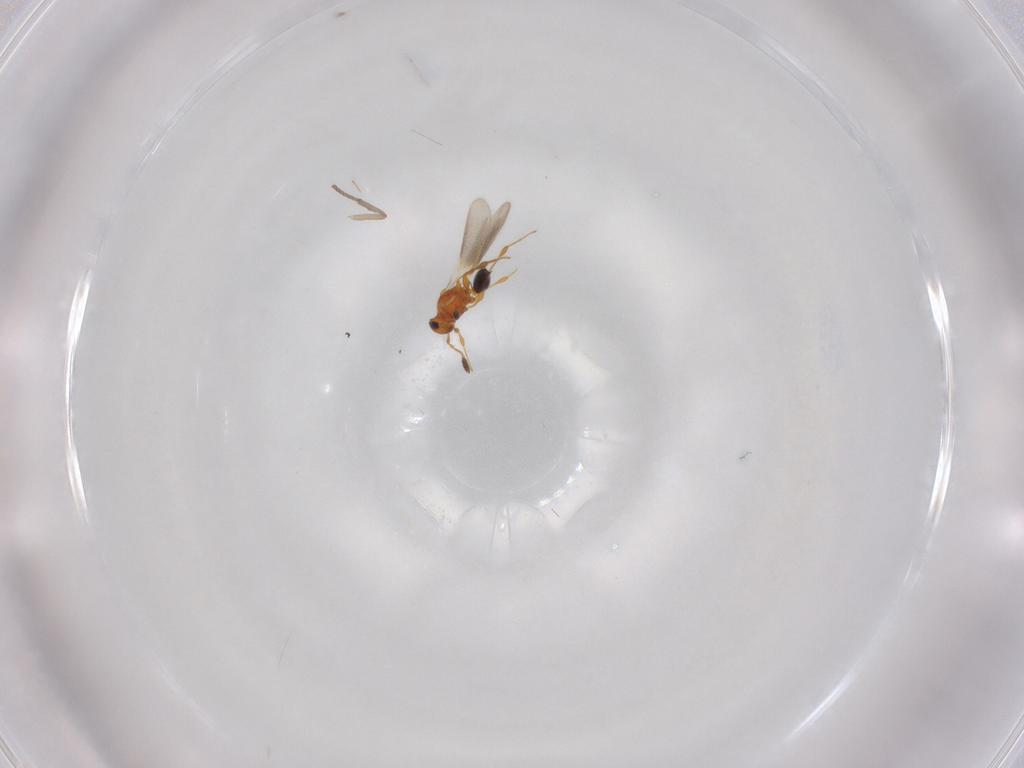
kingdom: Animalia
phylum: Arthropoda
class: Insecta
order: Hymenoptera
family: Platygastridae
